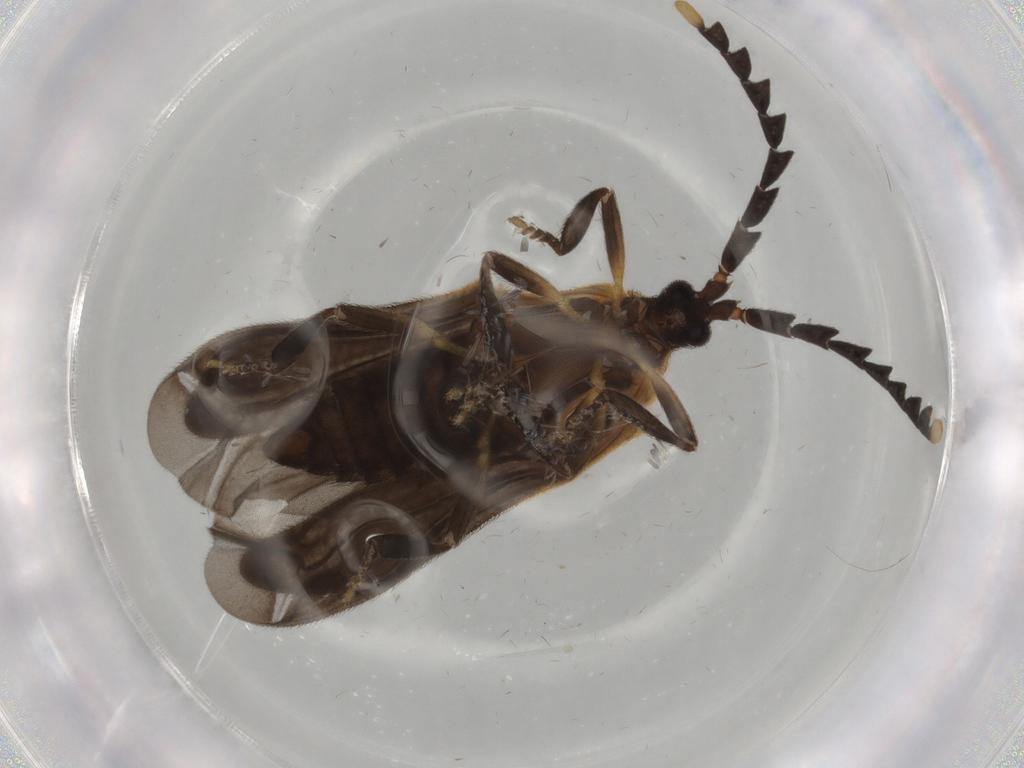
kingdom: Animalia
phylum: Arthropoda
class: Insecta
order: Coleoptera
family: Lycidae
